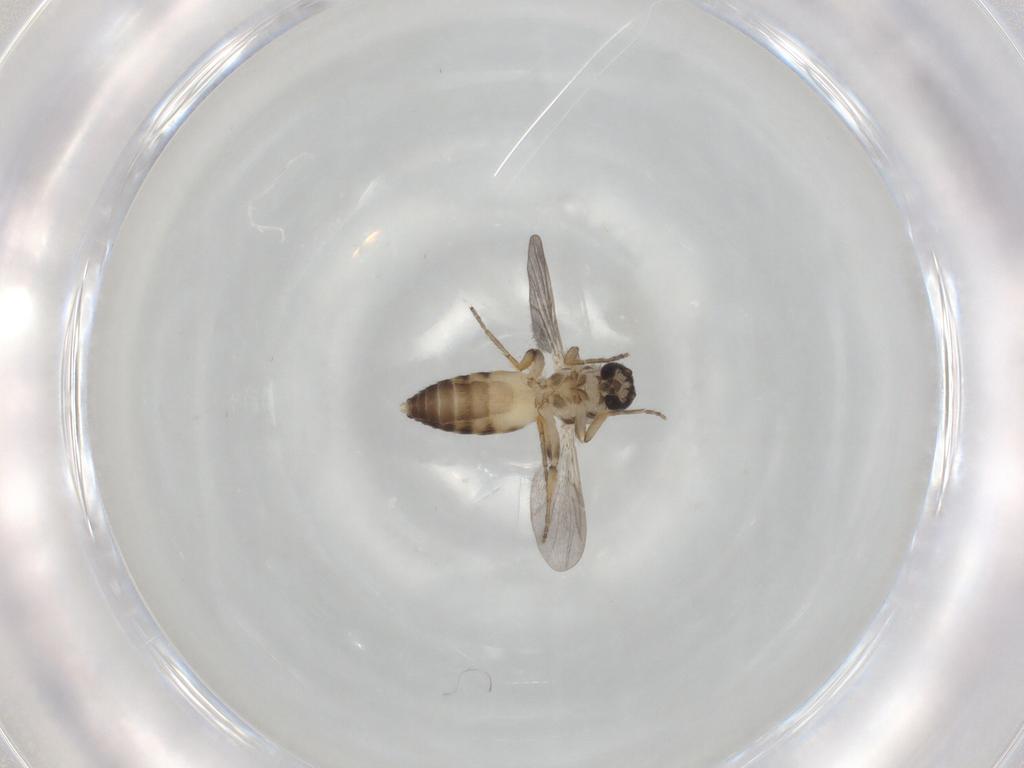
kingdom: Animalia
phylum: Arthropoda
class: Insecta
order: Diptera
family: Ceratopogonidae
